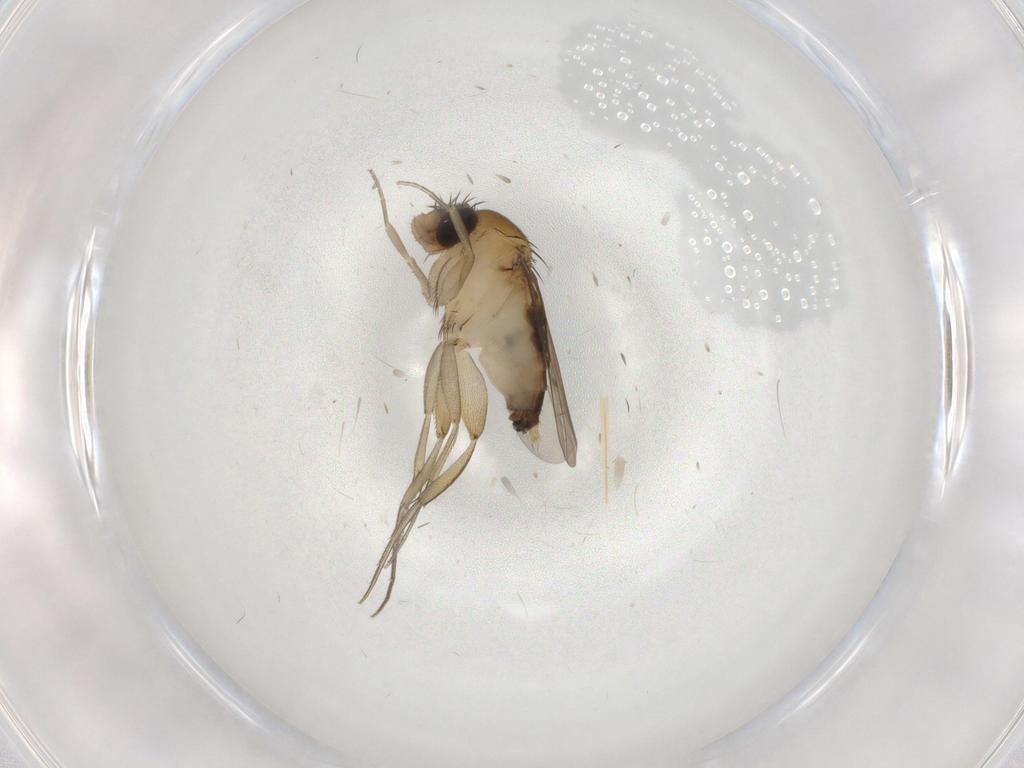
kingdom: Animalia
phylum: Arthropoda
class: Insecta
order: Diptera
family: Phoridae
